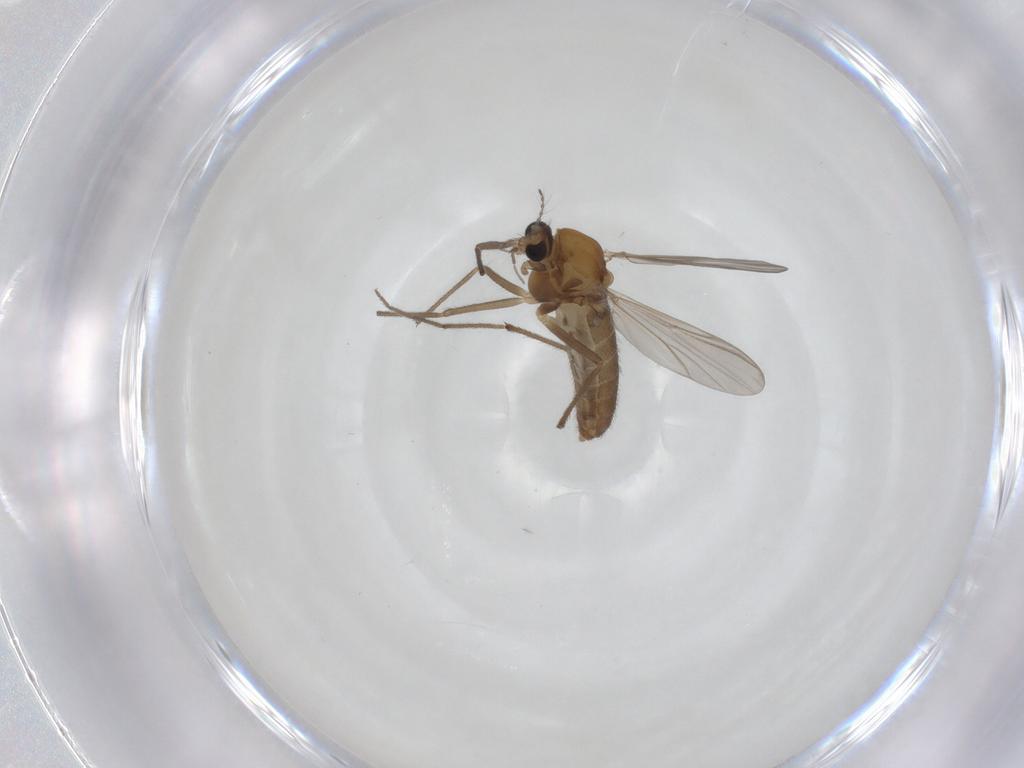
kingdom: Animalia
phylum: Arthropoda
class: Insecta
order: Diptera
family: Chironomidae
